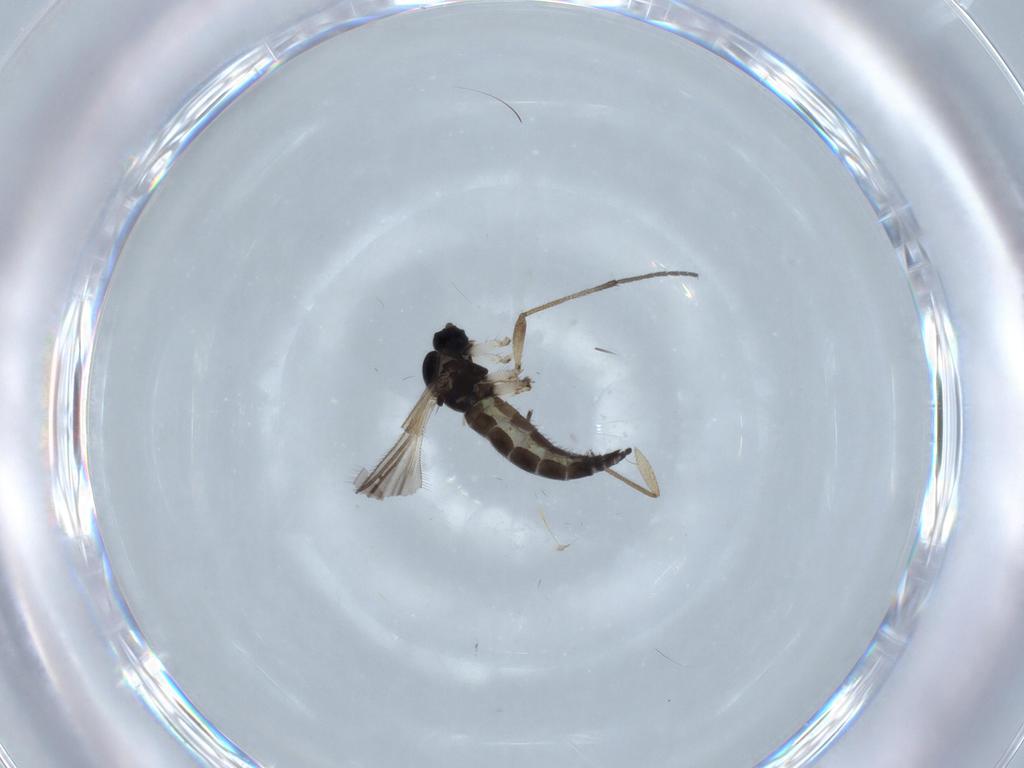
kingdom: Animalia
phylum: Arthropoda
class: Insecta
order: Diptera
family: Sciaridae
